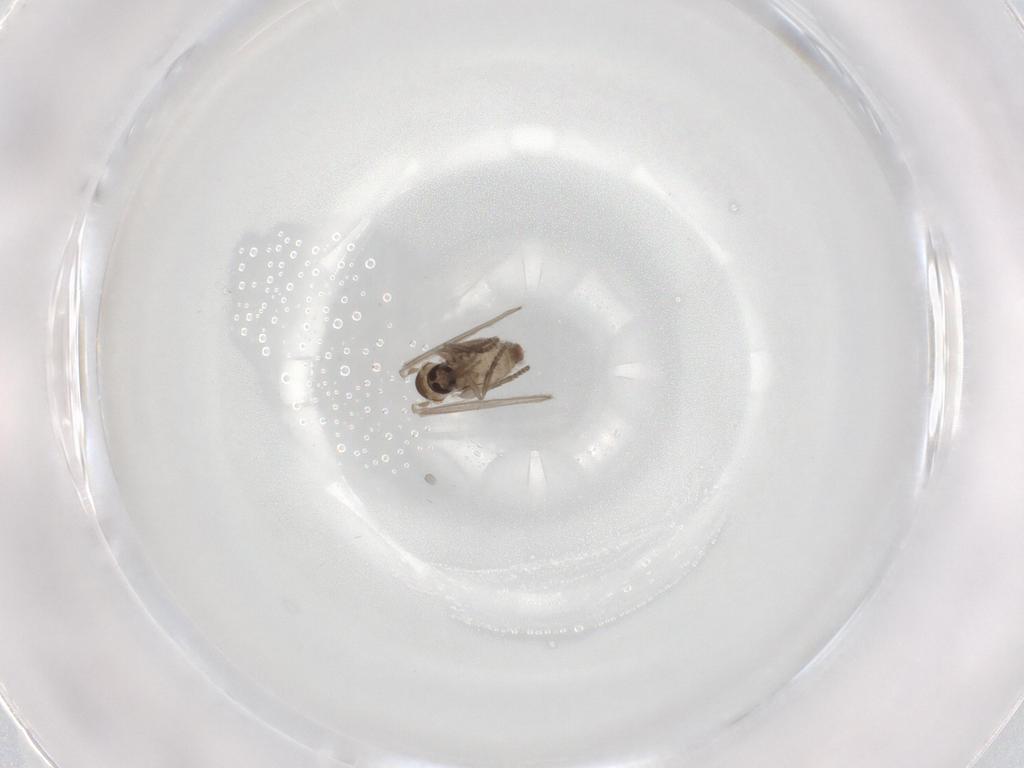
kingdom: Animalia
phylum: Arthropoda
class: Insecta
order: Diptera
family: Psychodidae
